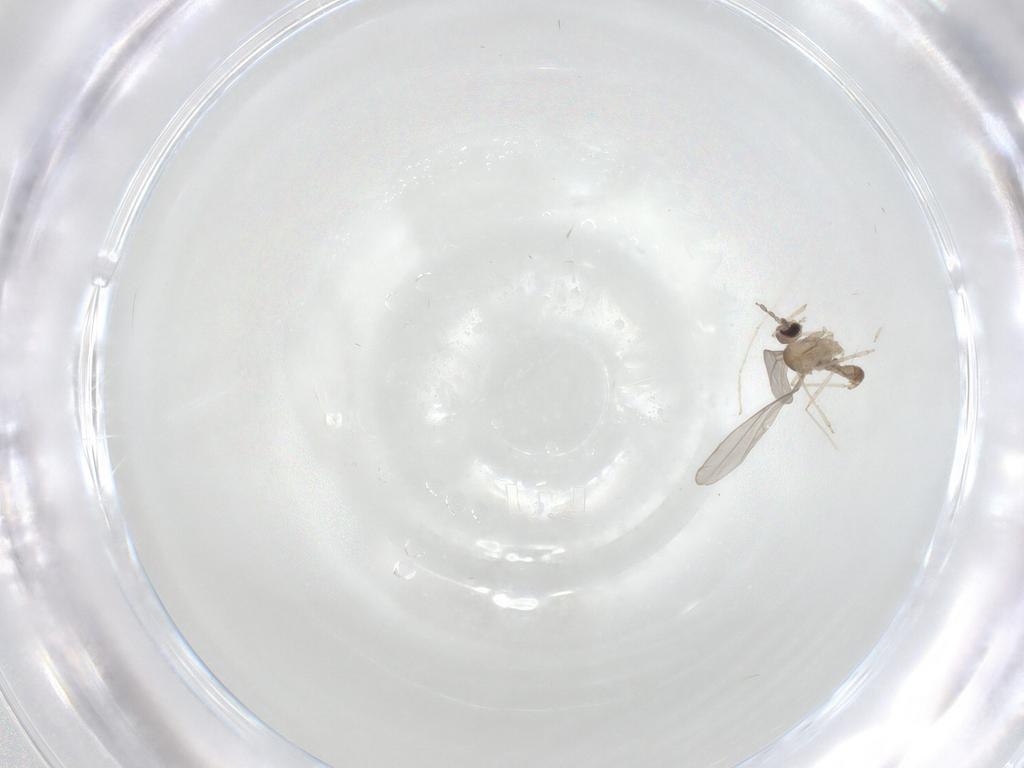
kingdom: Animalia
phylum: Arthropoda
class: Insecta
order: Diptera
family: Cecidomyiidae
